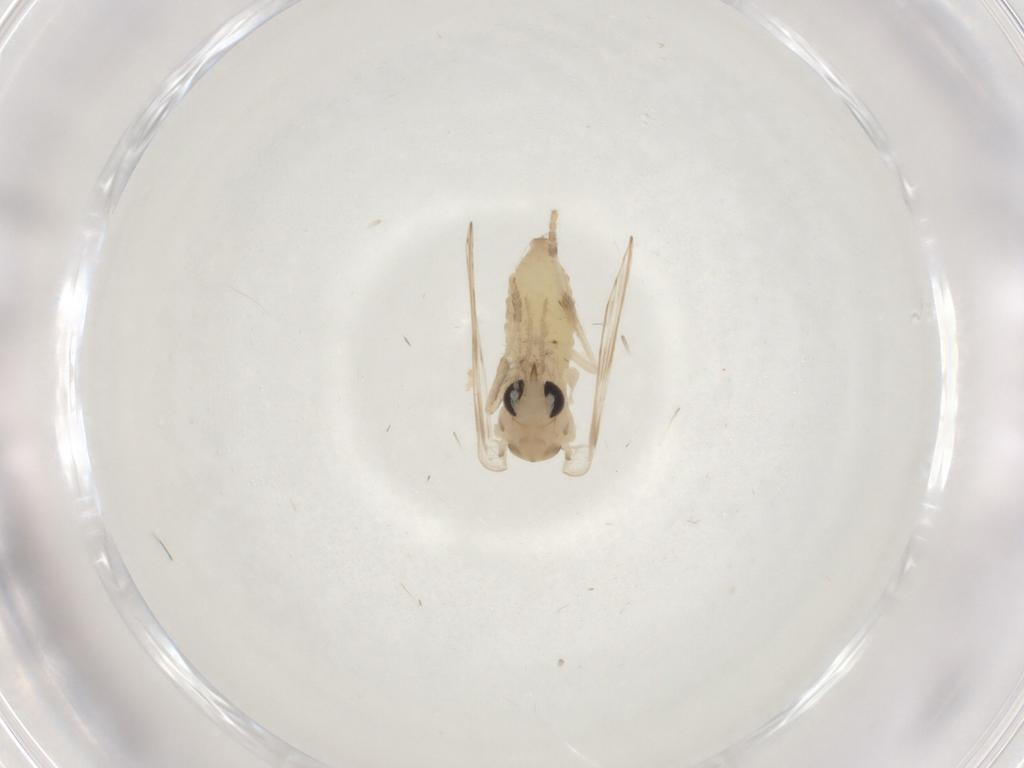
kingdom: Animalia
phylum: Arthropoda
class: Insecta
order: Diptera
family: Psychodidae
